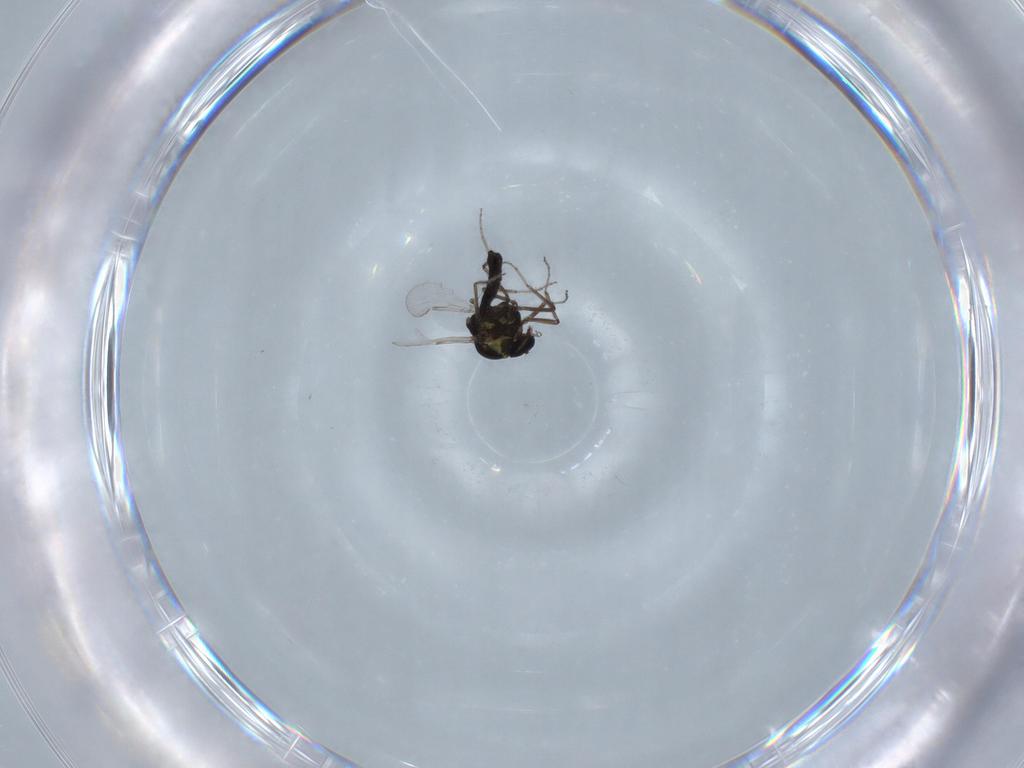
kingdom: Animalia
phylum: Arthropoda
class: Insecta
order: Diptera
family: Ceratopogonidae
